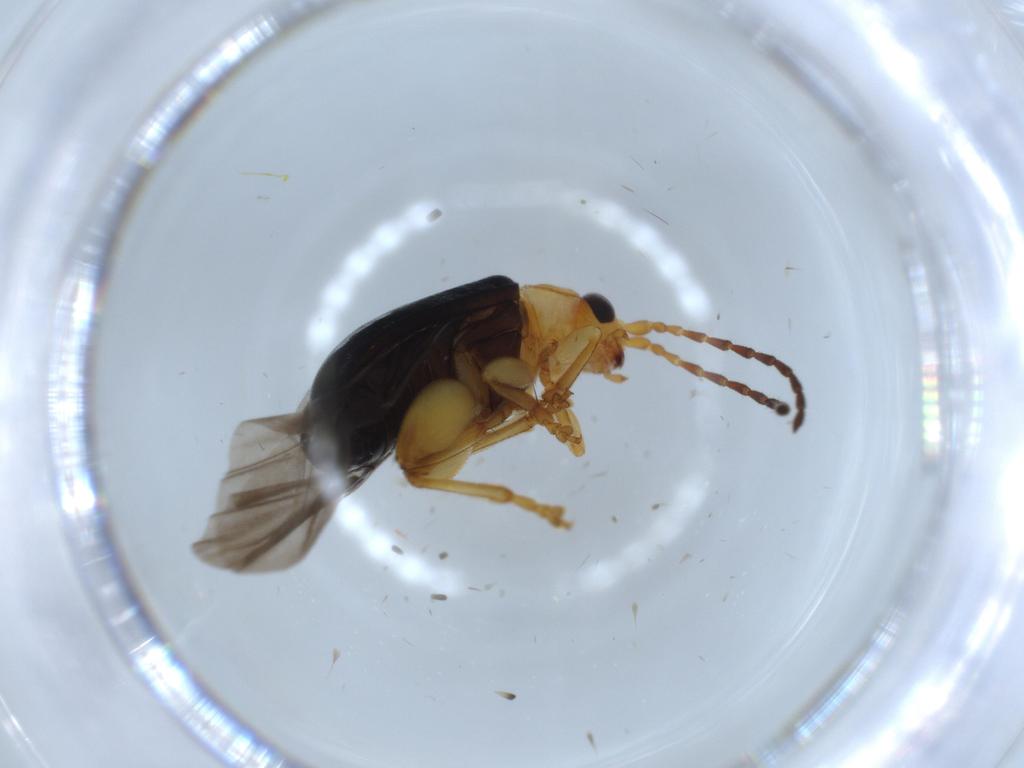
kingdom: Animalia
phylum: Arthropoda
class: Insecta
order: Coleoptera
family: Chrysomelidae
